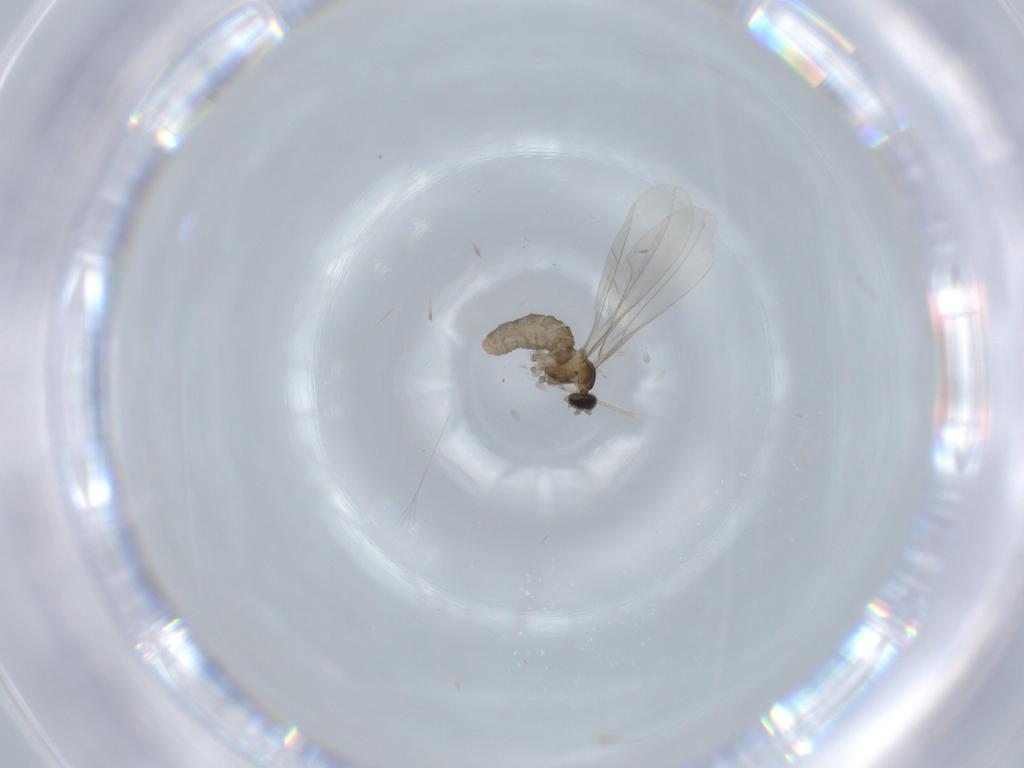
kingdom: Animalia
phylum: Arthropoda
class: Insecta
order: Diptera
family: Cecidomyiidae
